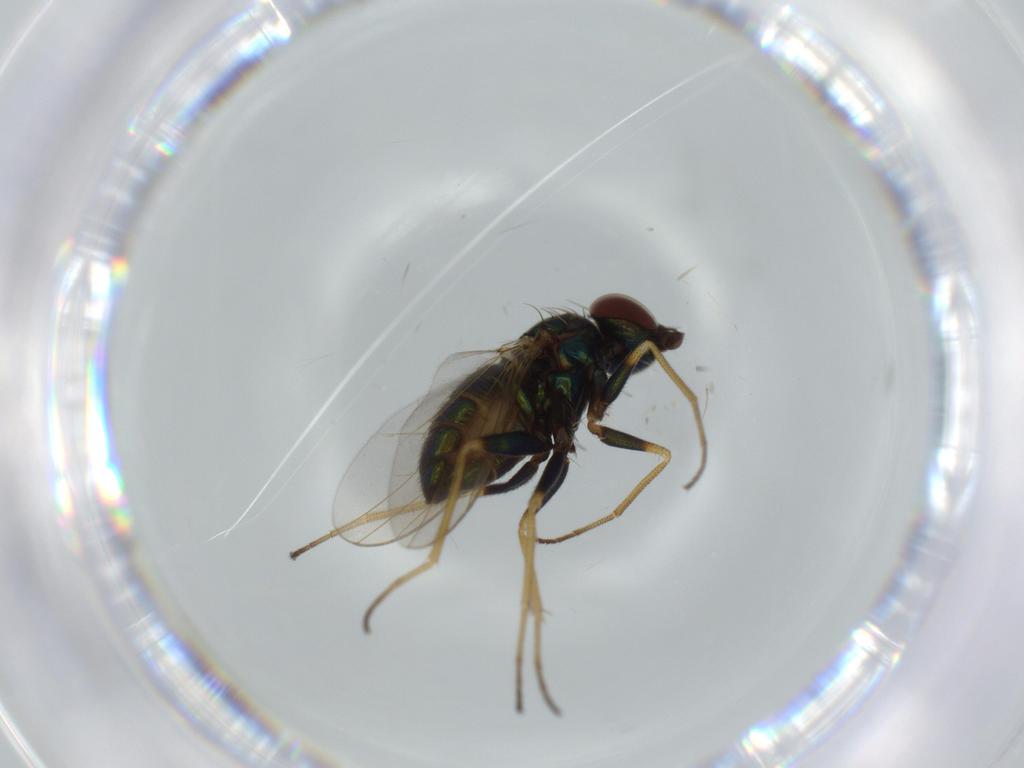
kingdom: Animalia
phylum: Arthropoda
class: Insecta
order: Diptera
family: Dolichopodidae
